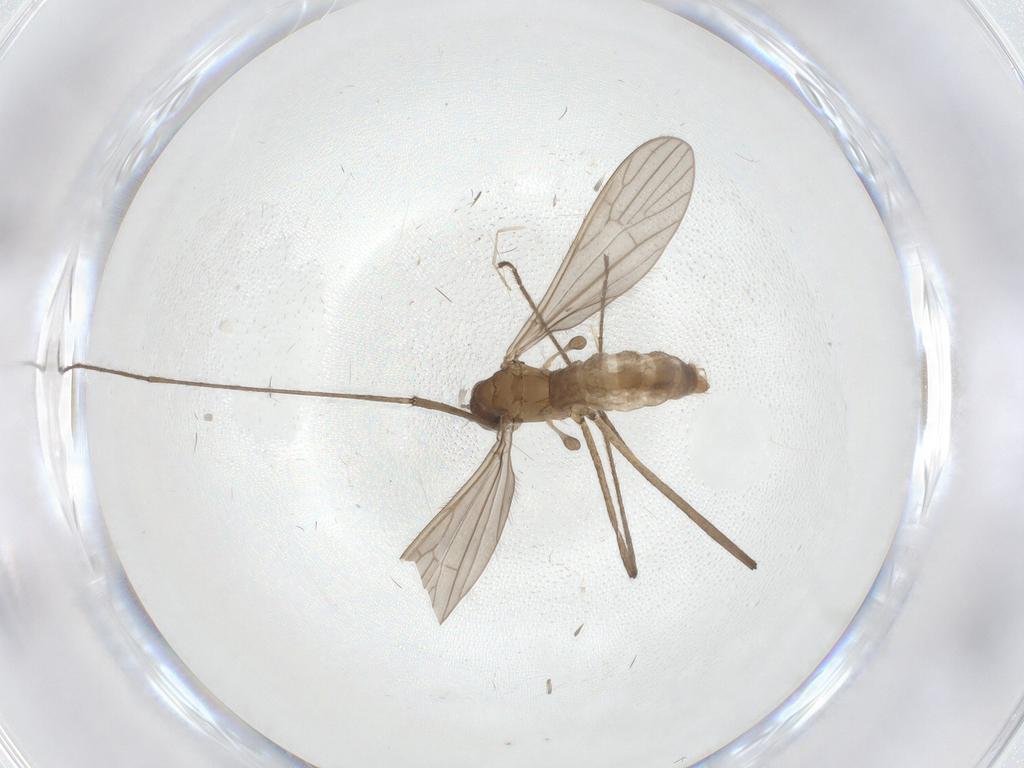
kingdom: Animalia
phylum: Arthropoda
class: Insecta
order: Diptera
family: Limoniidae
